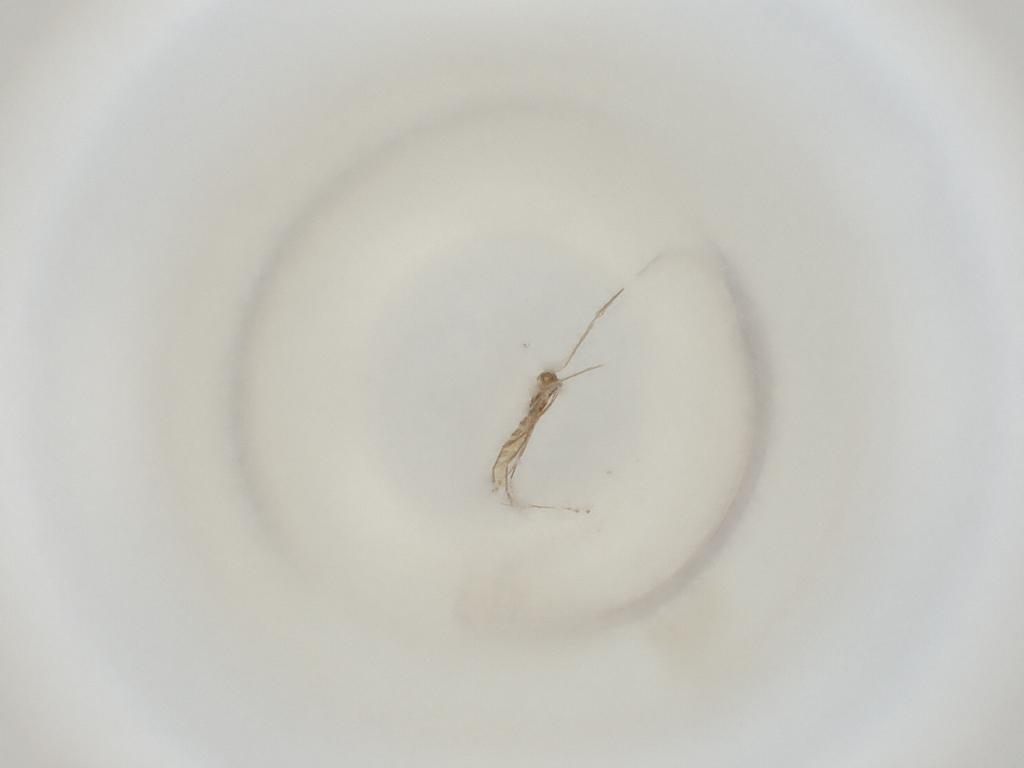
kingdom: Animalia
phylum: Arthropoda
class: Insecta
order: Diptera
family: Cecidomyiidae
